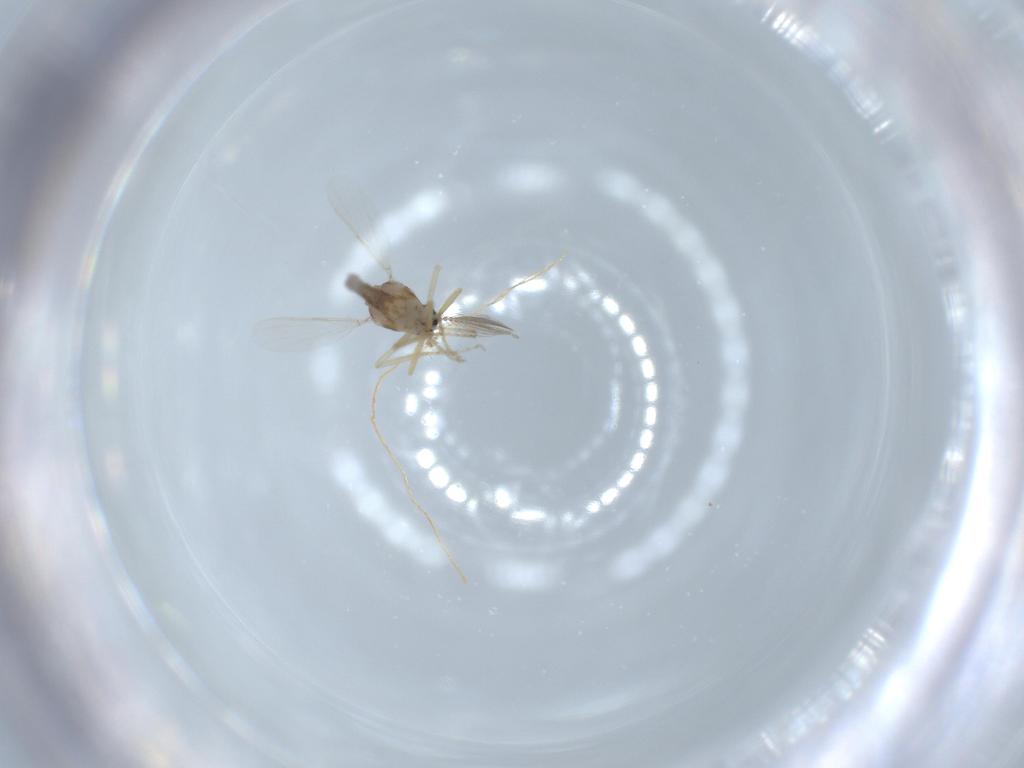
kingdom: Animalia
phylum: Arthropoda
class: Insecta
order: Diptera
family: Ceratopogonidae
